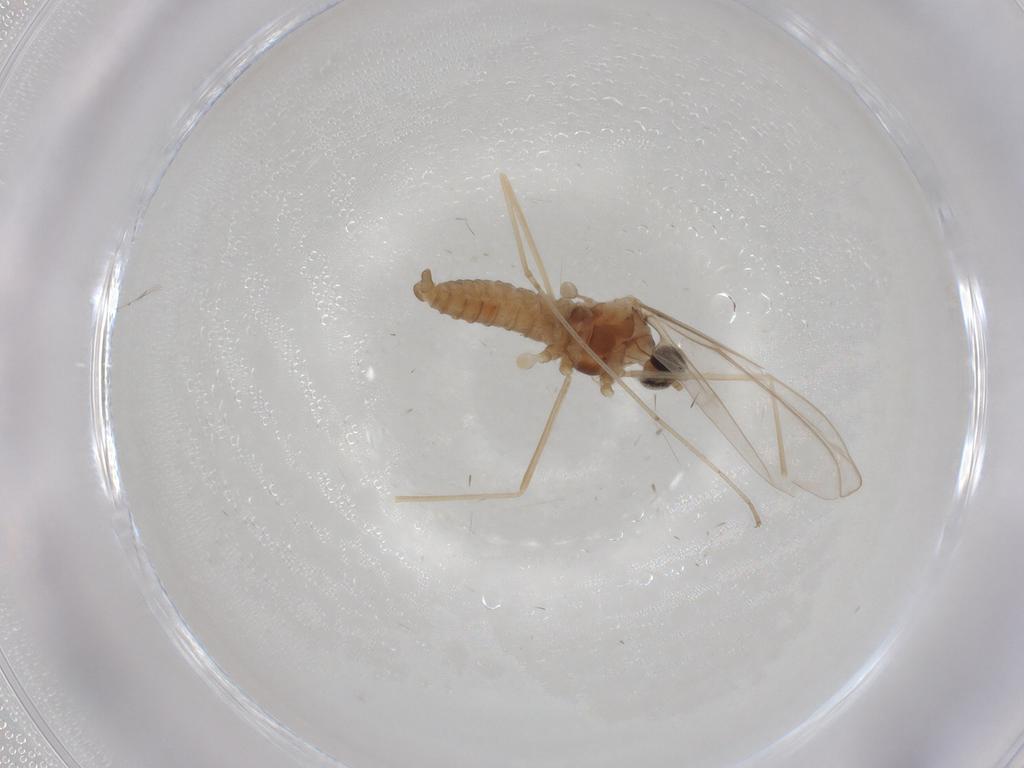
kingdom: Animalia
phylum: Arthropoda
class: Insecta
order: Diptera
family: Cecidomyiidae
